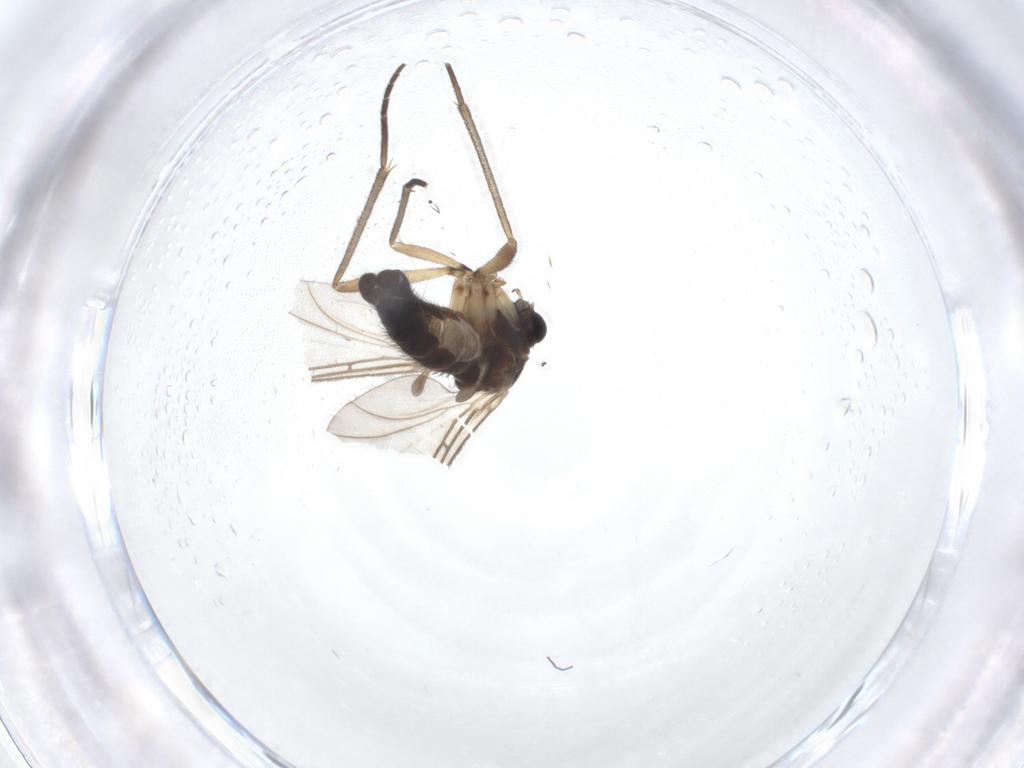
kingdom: Animalia
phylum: Arthropoda
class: Insecta
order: Diptera
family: Sciaridae
